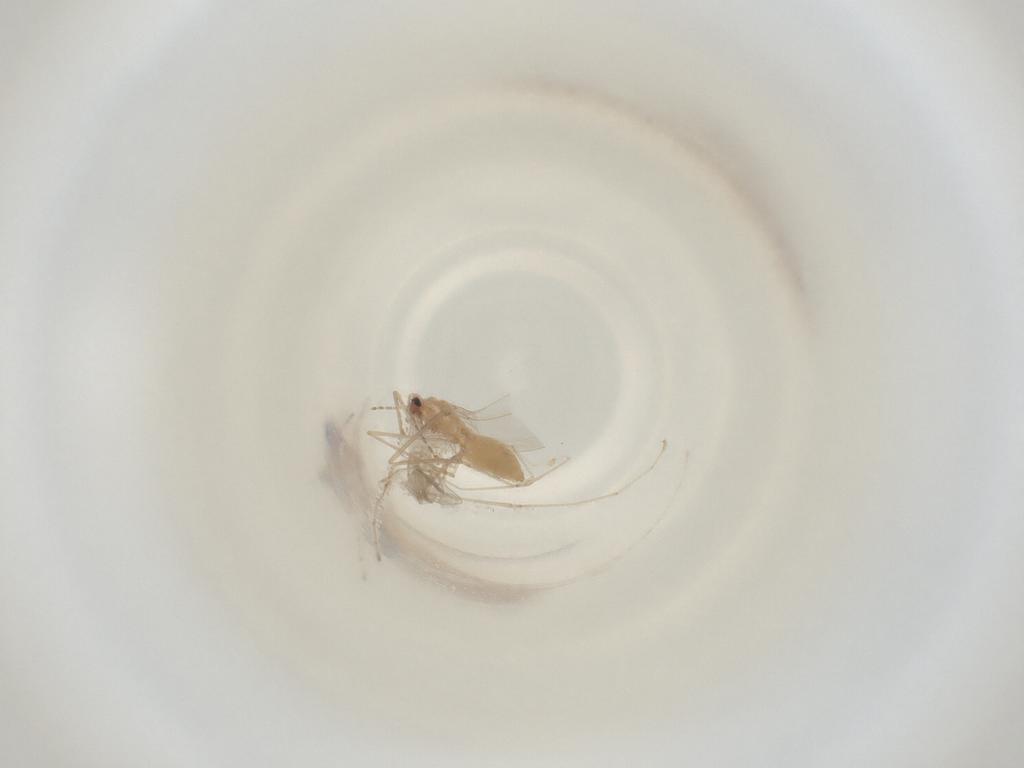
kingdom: Animalia
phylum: Arthropoda
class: Insecta
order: Diptera
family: Cecidomyiidae
